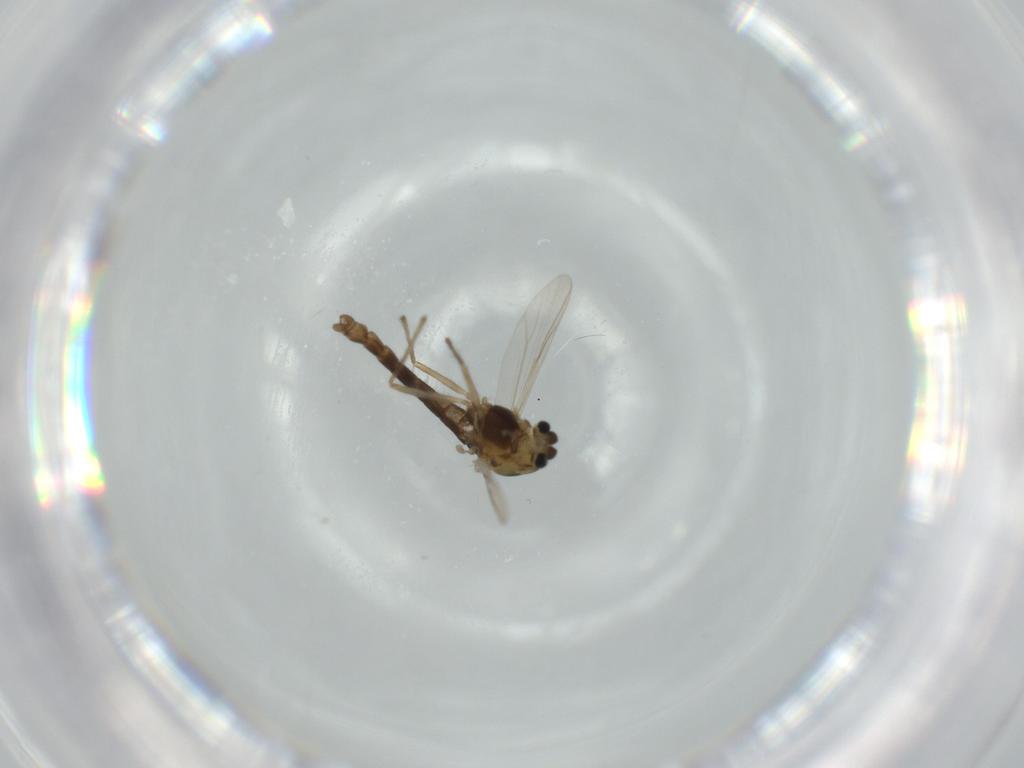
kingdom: Animalia
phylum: Arthropoda
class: Insecta
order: Diptera
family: Chironomidae
